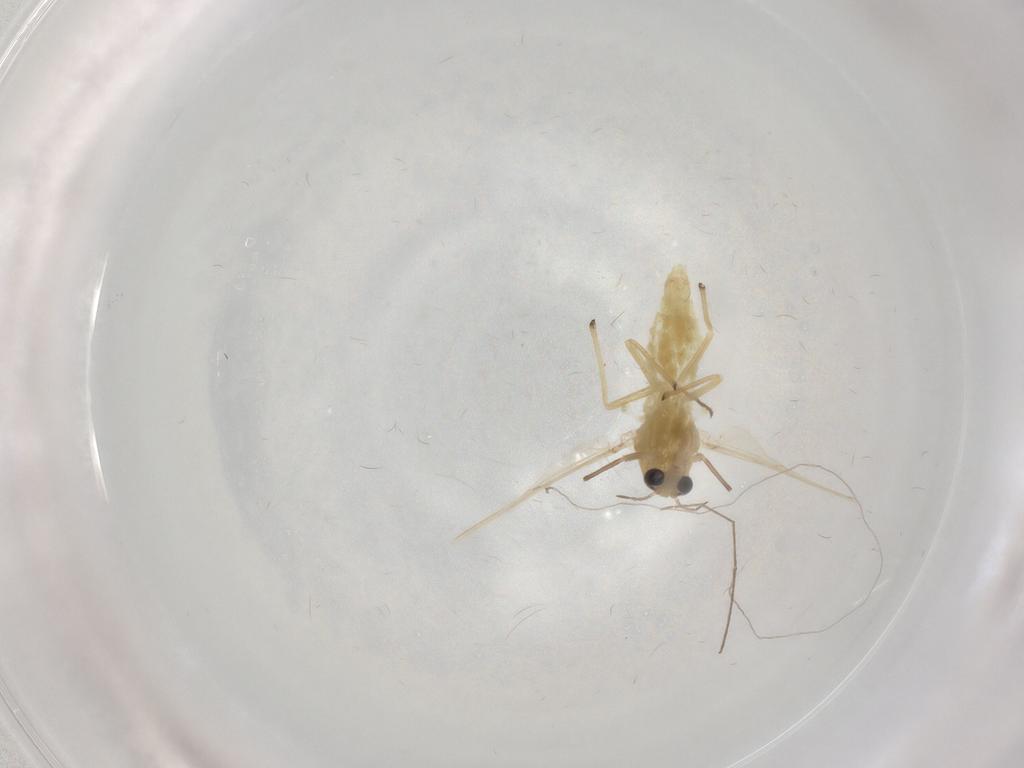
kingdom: Animalia
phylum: Arthropoda
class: Insecta
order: Diptera
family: Chironomidae
